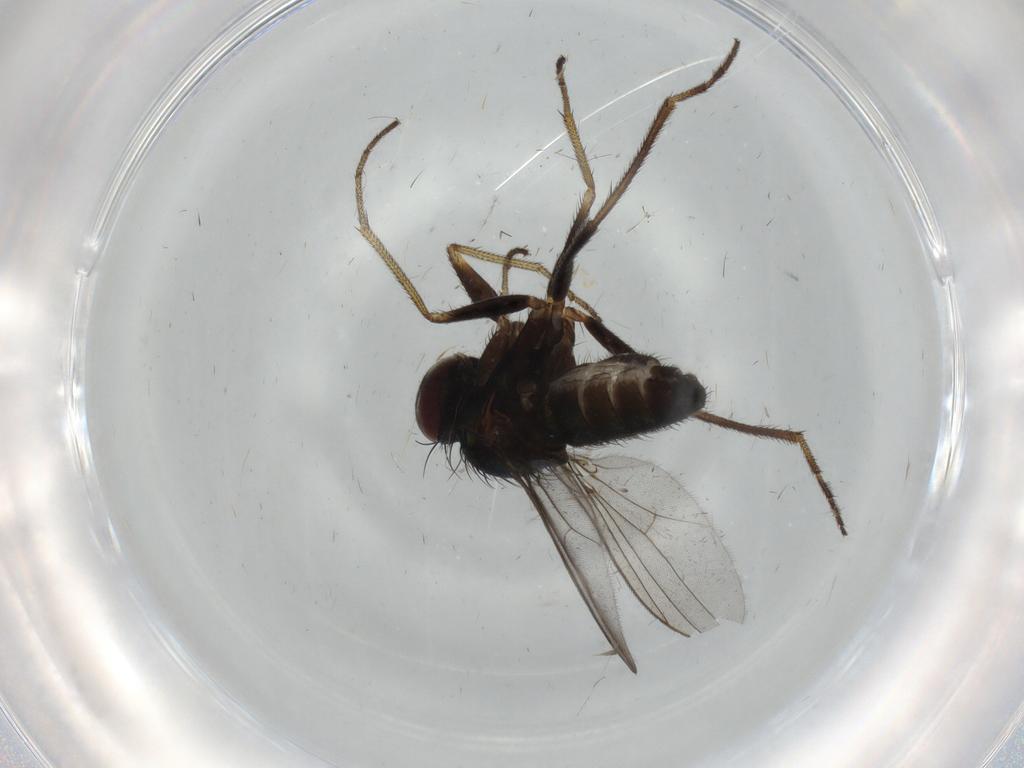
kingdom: Animalia
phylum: Arthropoda
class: Insecta
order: Diptera
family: Cecidomyiidae
